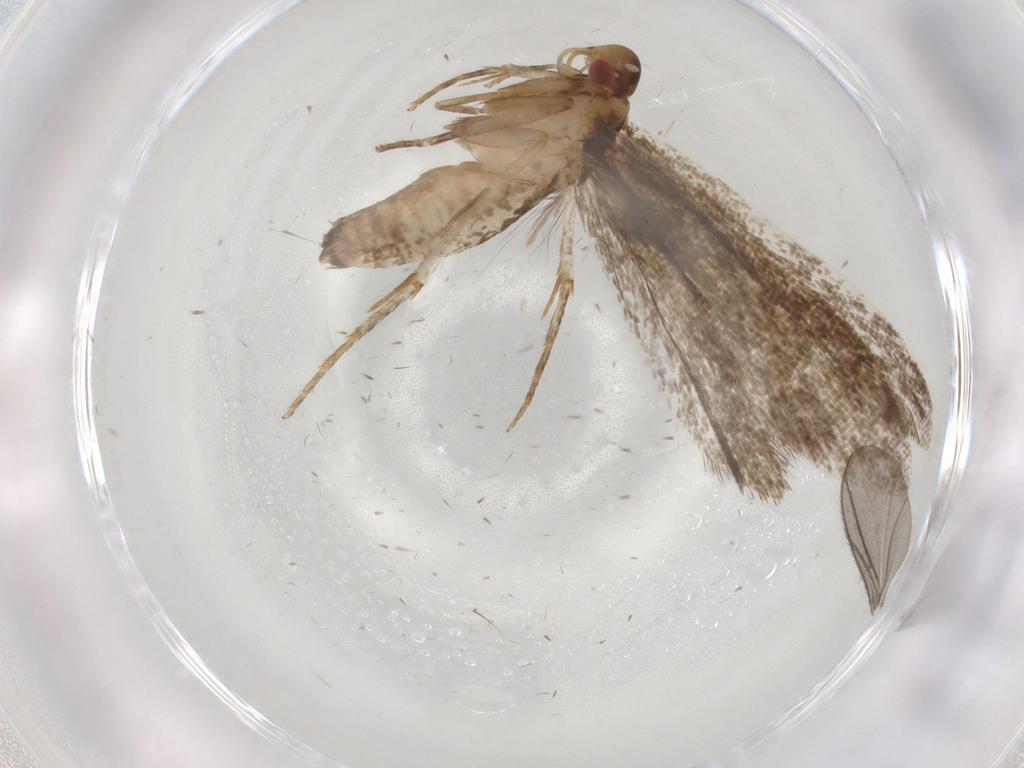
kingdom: Animalia
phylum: Arthropoda
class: Insecta
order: Lepidoptera
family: Gelechiidae
